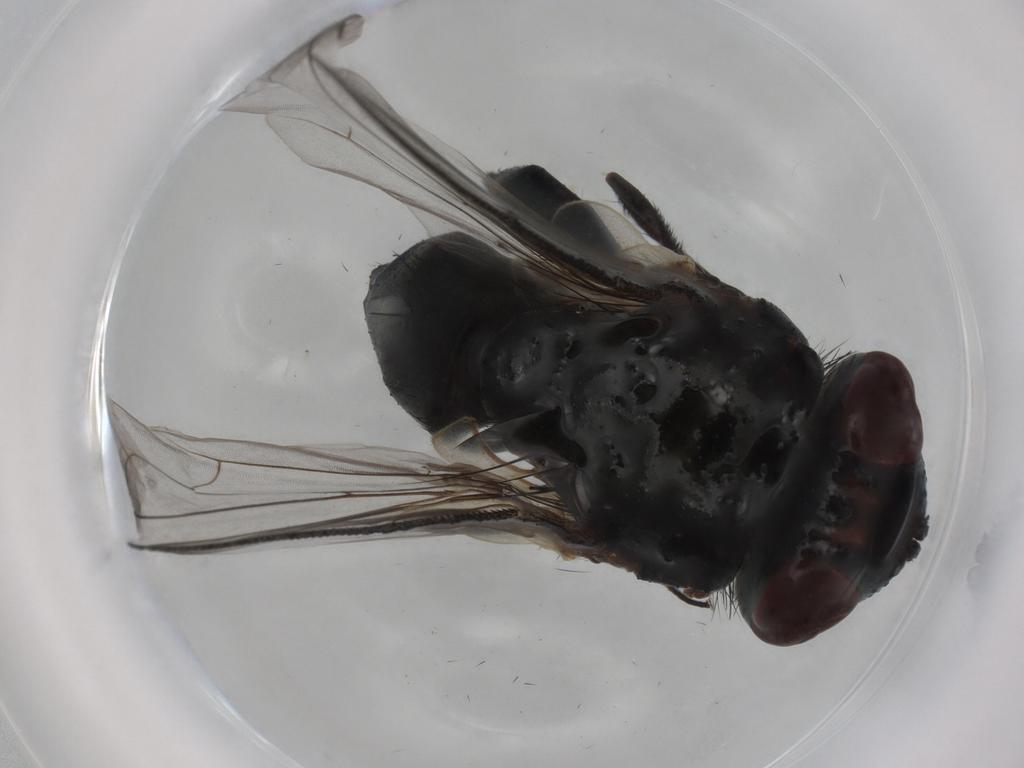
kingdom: Animalia
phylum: Arthropoda
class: Insecta
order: Diptera
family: Tachinidae
